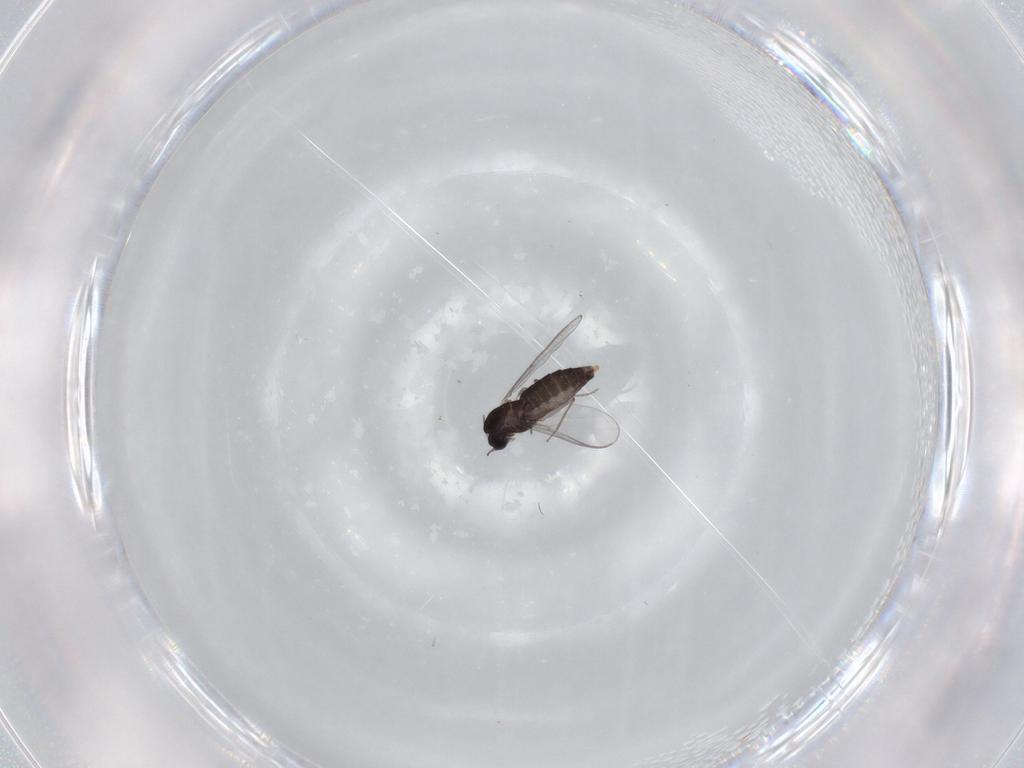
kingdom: Animalia
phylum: Arthropoda
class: Insecta
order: Diptera
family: Chironomidae
